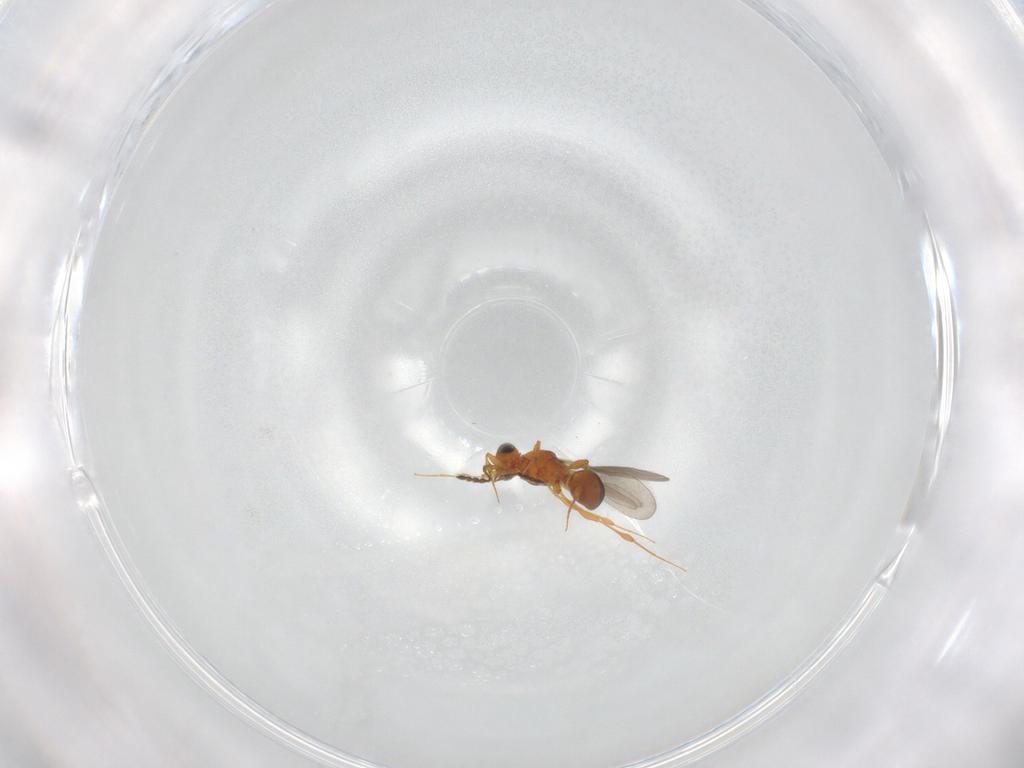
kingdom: Animalia
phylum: Arthropoda
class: Insecta
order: Hymenoptera
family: Platygastridae
